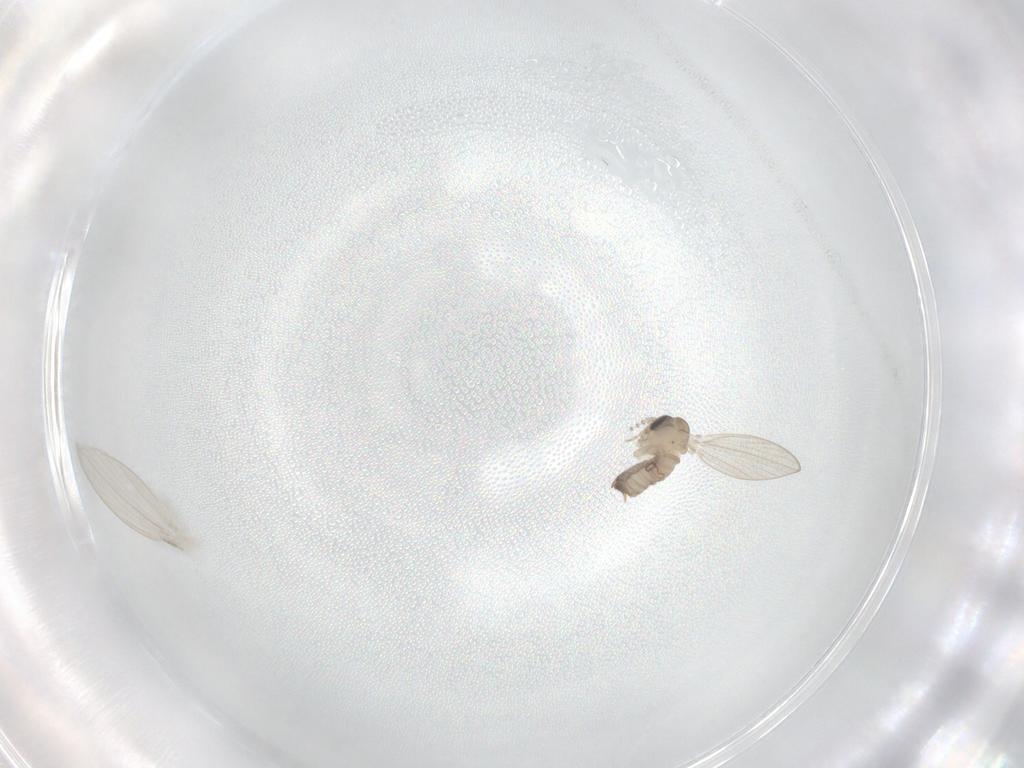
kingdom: Animalia
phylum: Arthropoda
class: Insecta
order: Diptera
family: Psychodidae
